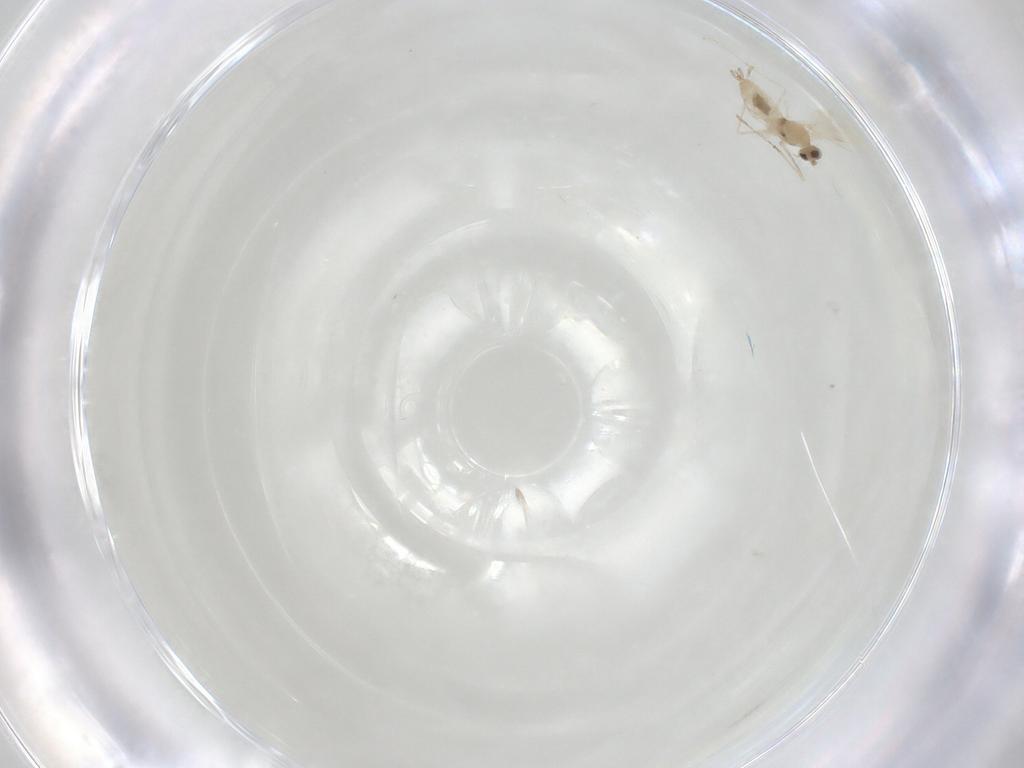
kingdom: Animalia
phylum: Arthropoda
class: Insecta
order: Diptera
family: Cecidomyiidae
